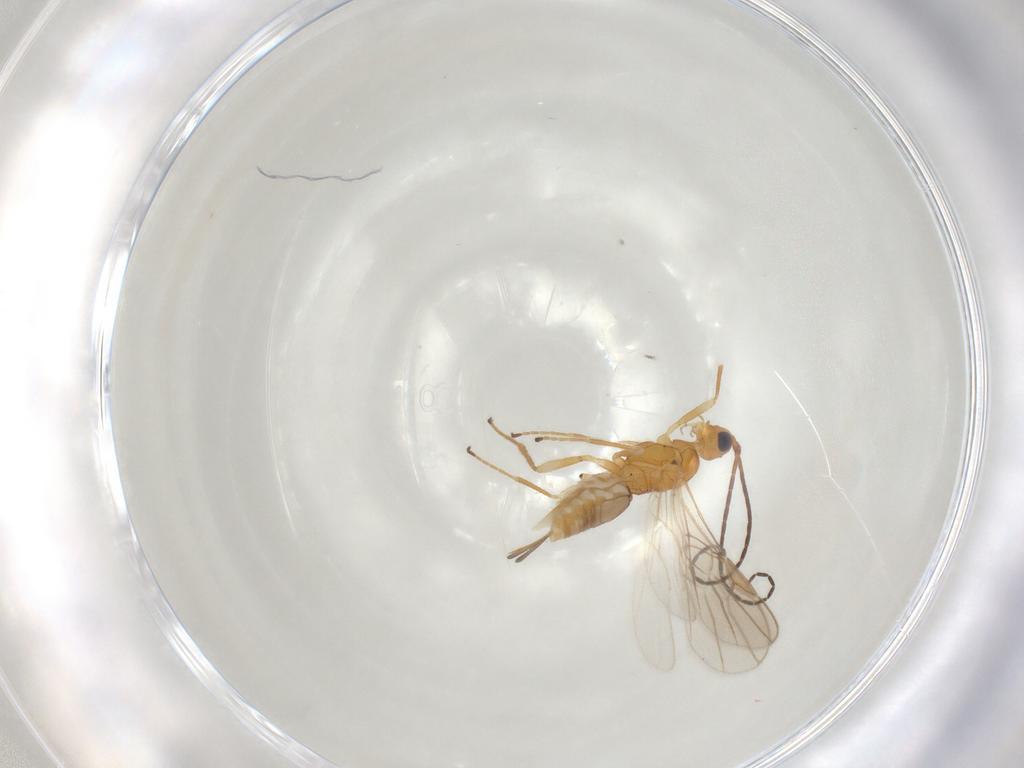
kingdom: Animalia
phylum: Arthropoda
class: Insecta
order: Hymenoptera
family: Braconidae
